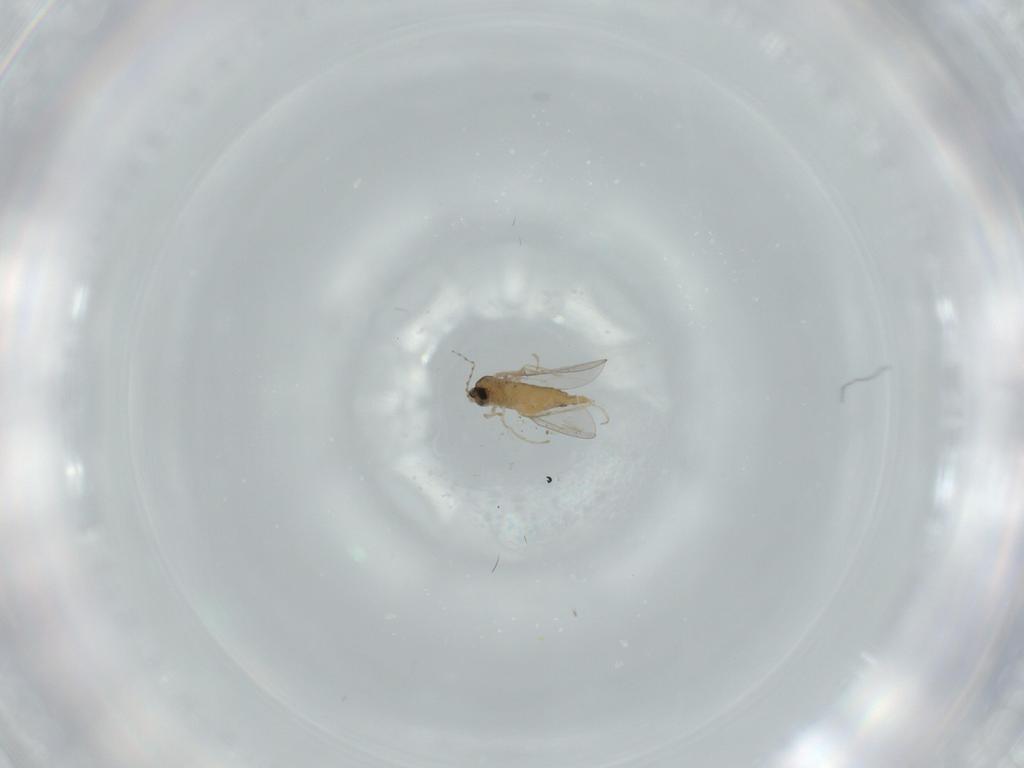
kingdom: Animalia
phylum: Arthropoda
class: Insecta
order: Diptera
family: Cecidomyiidae
